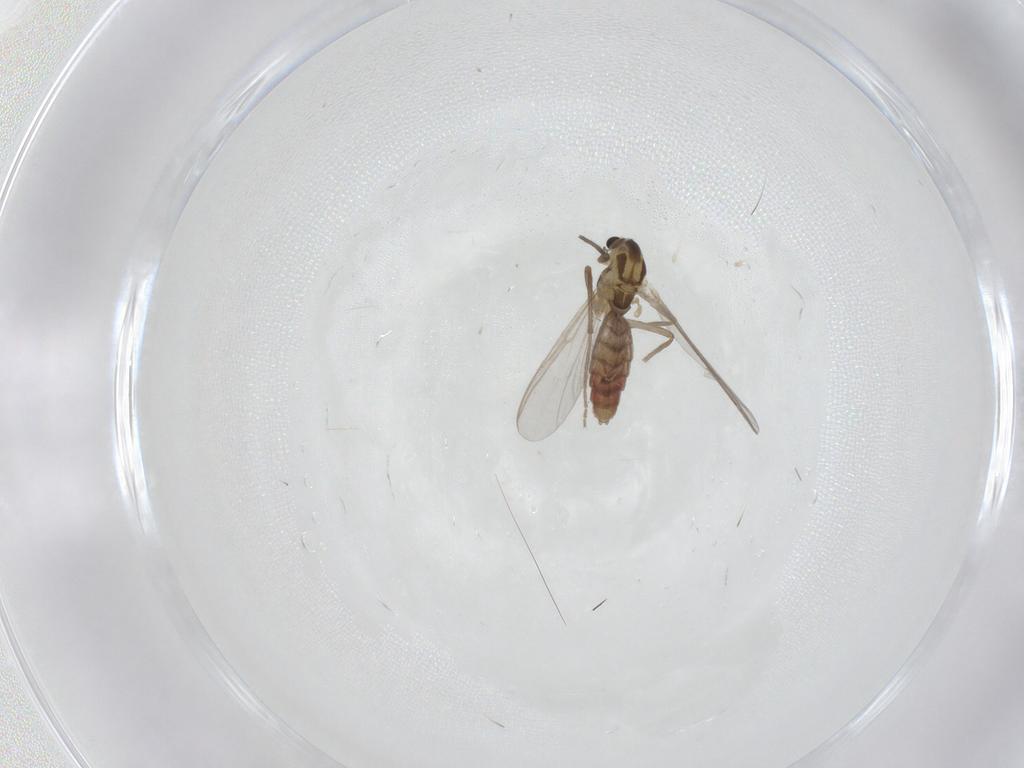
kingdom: Animalia
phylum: Arthropoda
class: Insecta
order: Diptera
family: Chironomidae
